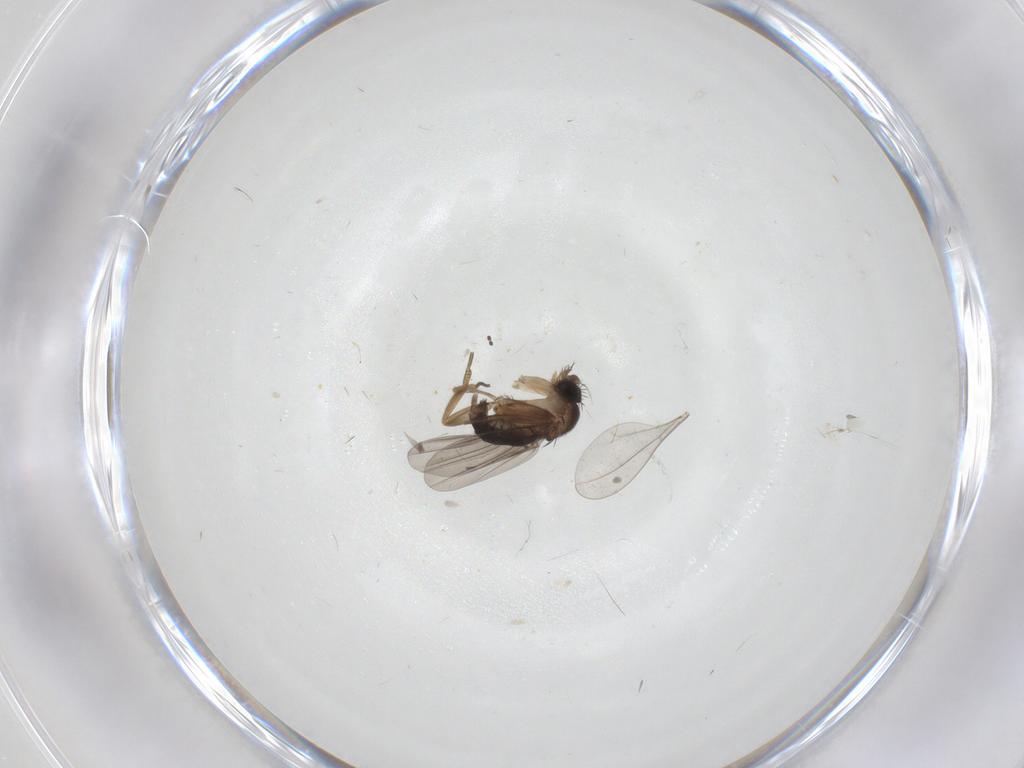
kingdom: Animalia
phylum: Arthropoda
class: Insecta
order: Diptera
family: Sciaridae
